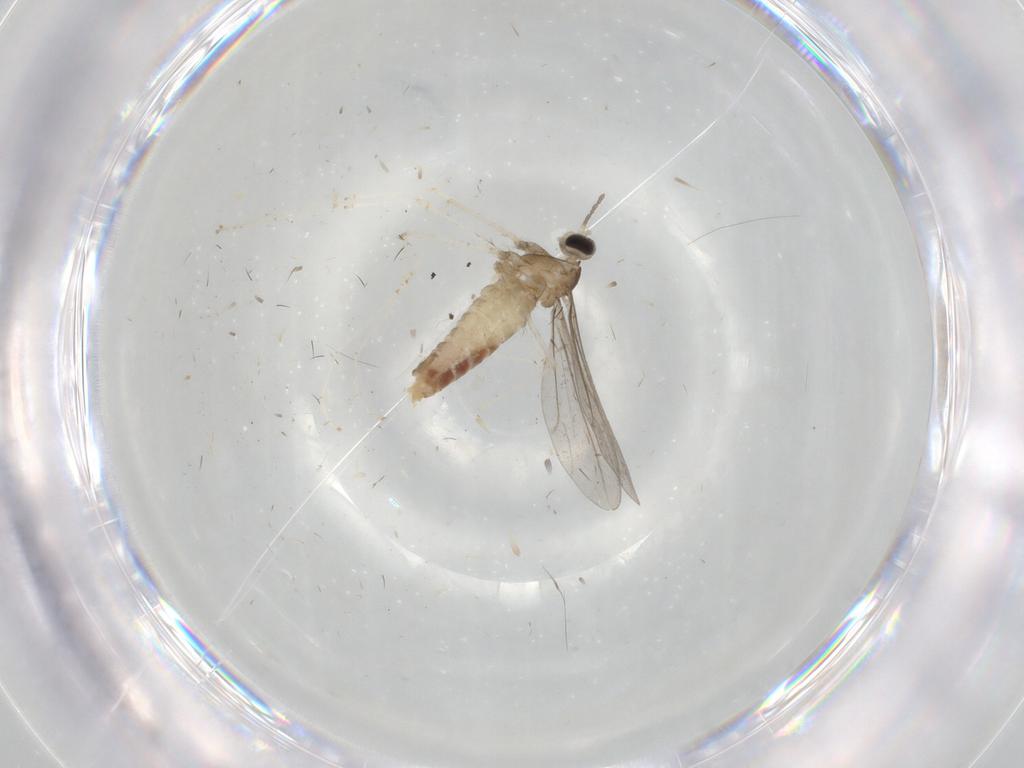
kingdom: Animalia
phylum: Arthropoda
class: Insecta
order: Diptera
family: Cecidomyiidae
